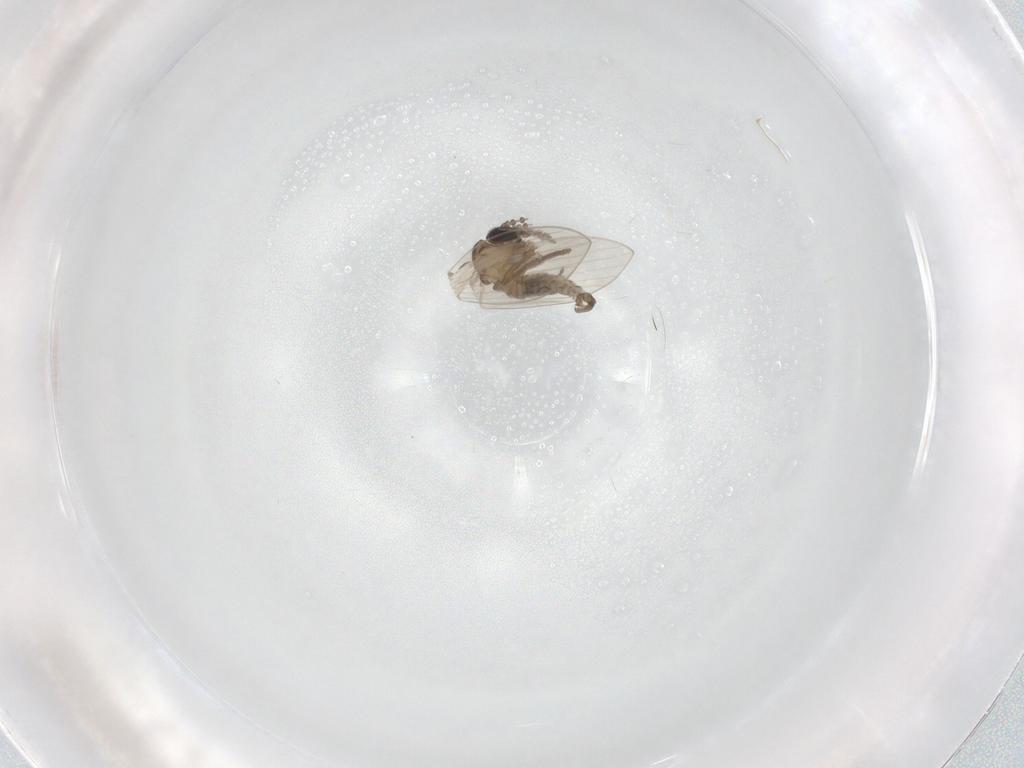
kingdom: Animalia
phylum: Arthropoda
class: Insecta
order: Diptera
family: Psychodidae
